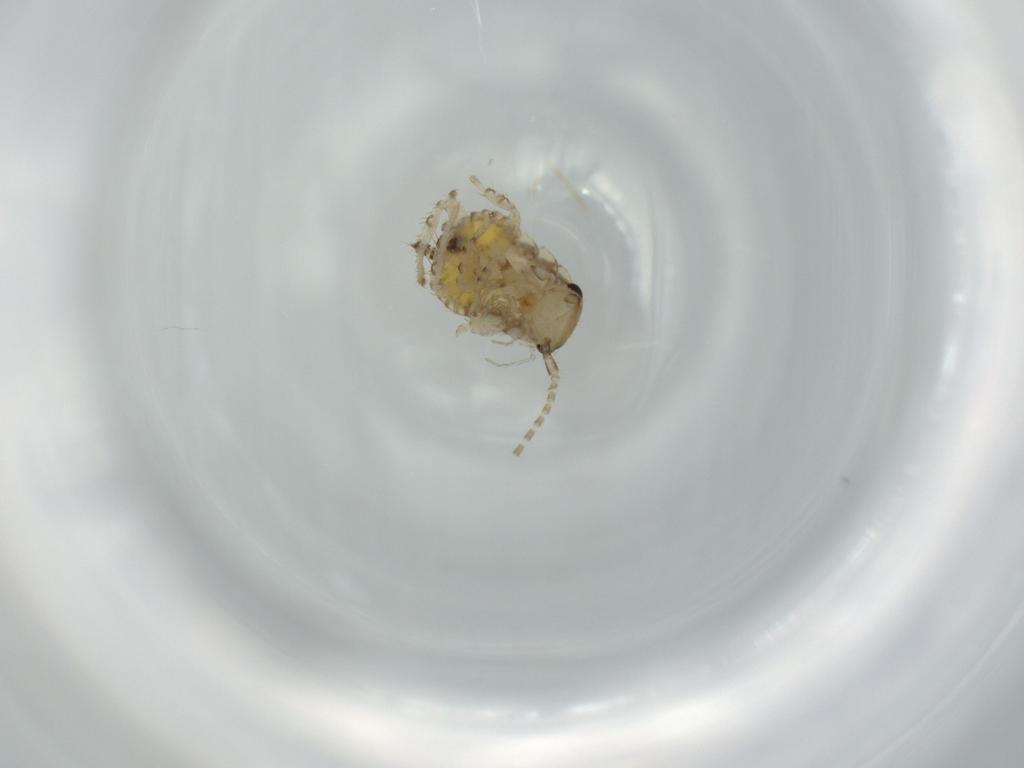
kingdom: Animalia
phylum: Arthropoda
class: Insecta
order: Blattodea
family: Ectobiidae
